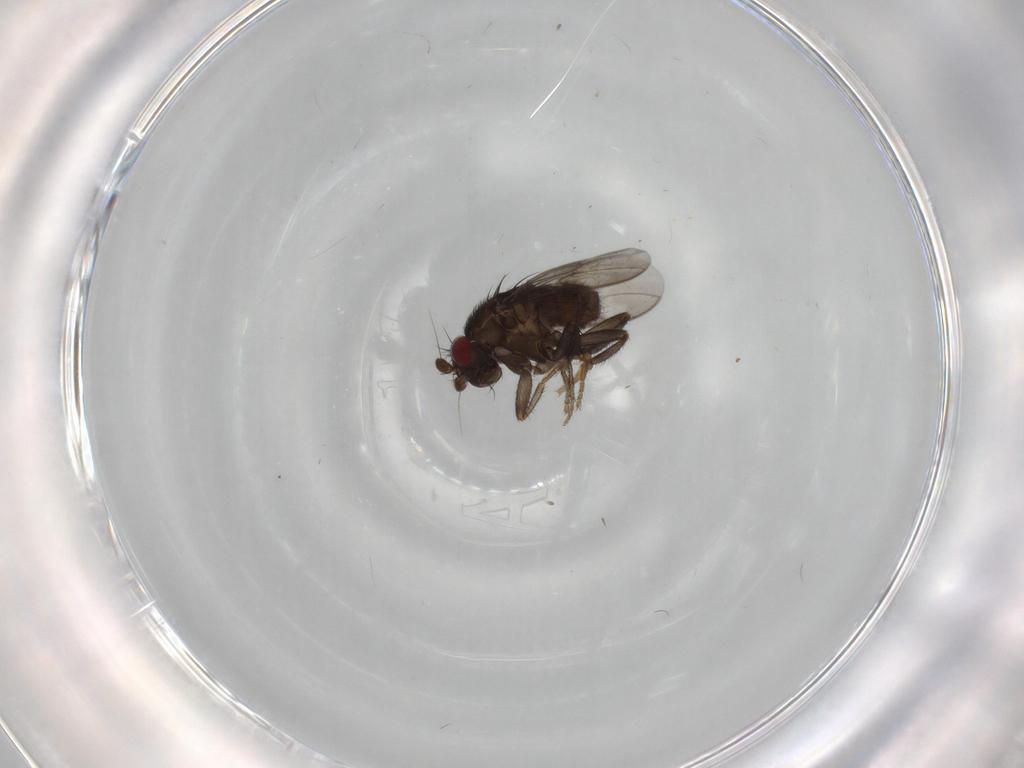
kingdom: Animalia
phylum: Arthropoda
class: Insecta
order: Diptera
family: Sphaeroceridae
